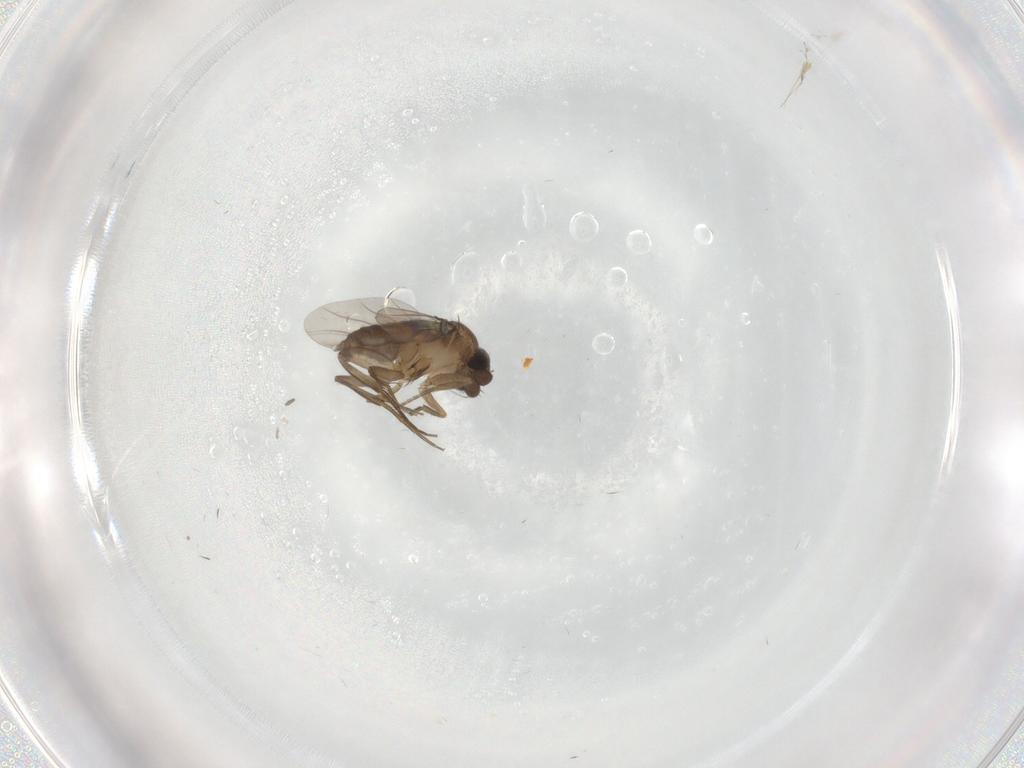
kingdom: Animalia
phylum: Arthropoda
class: Insecta
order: Diptera
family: Phoridae
